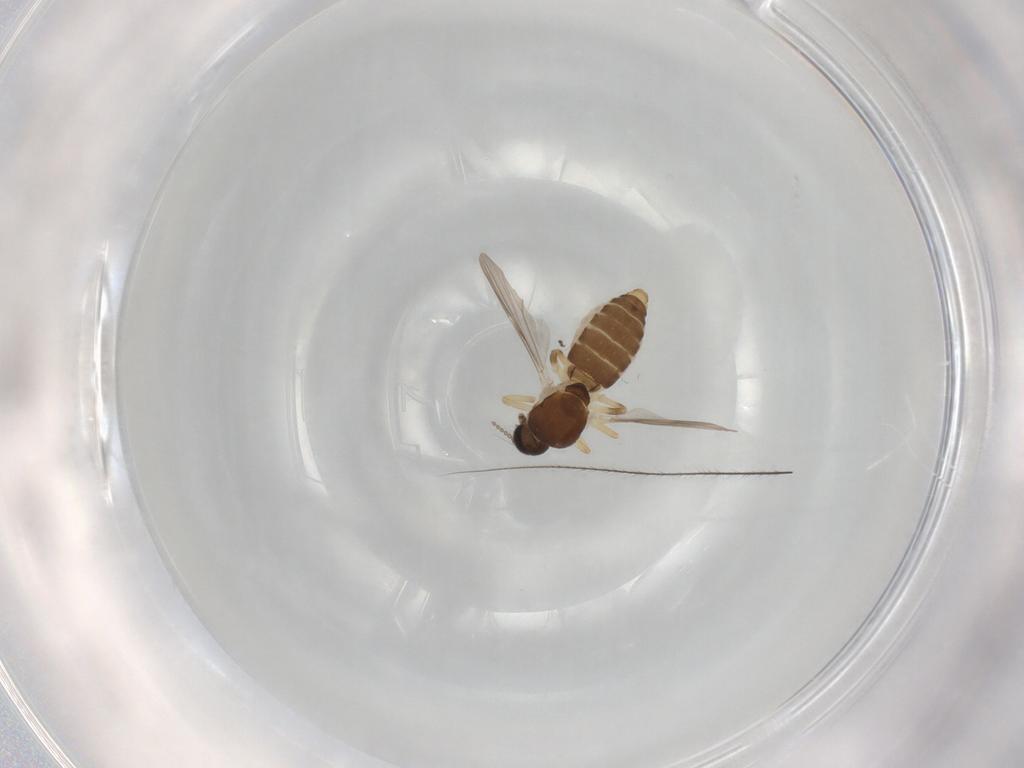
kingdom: Animalia
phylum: Arthropoda
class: Insecta
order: Diptera
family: Ceratopogonidae
